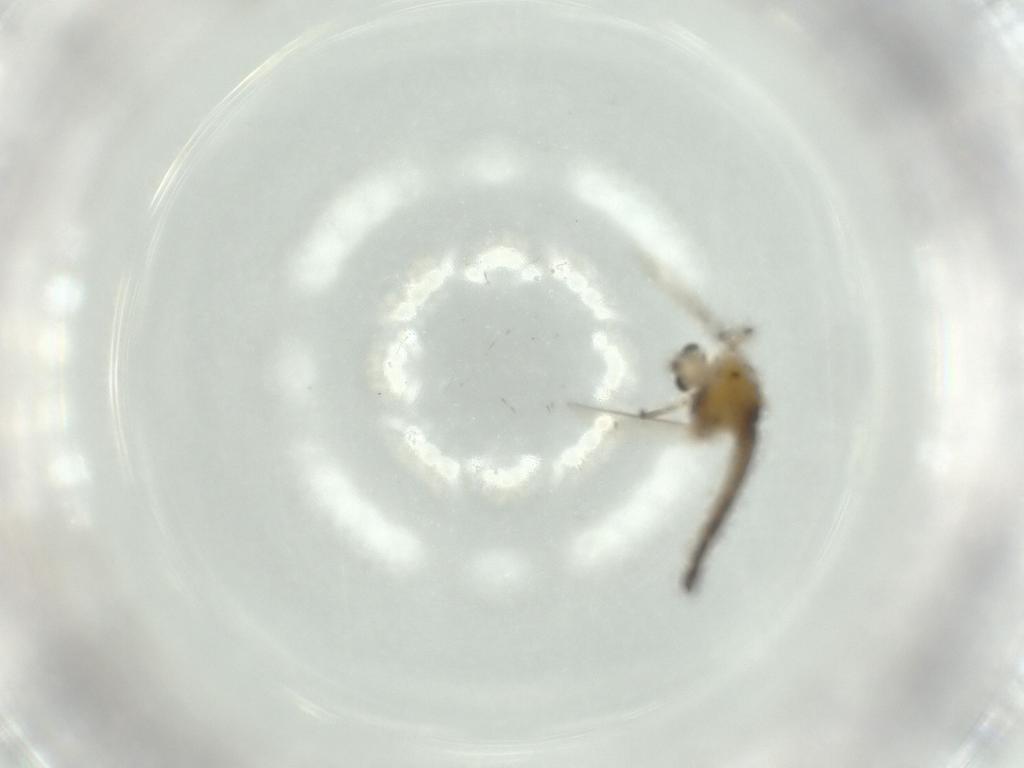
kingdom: Animalia
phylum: Arthropoda
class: Insecta
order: Diptera
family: Chironomidae
